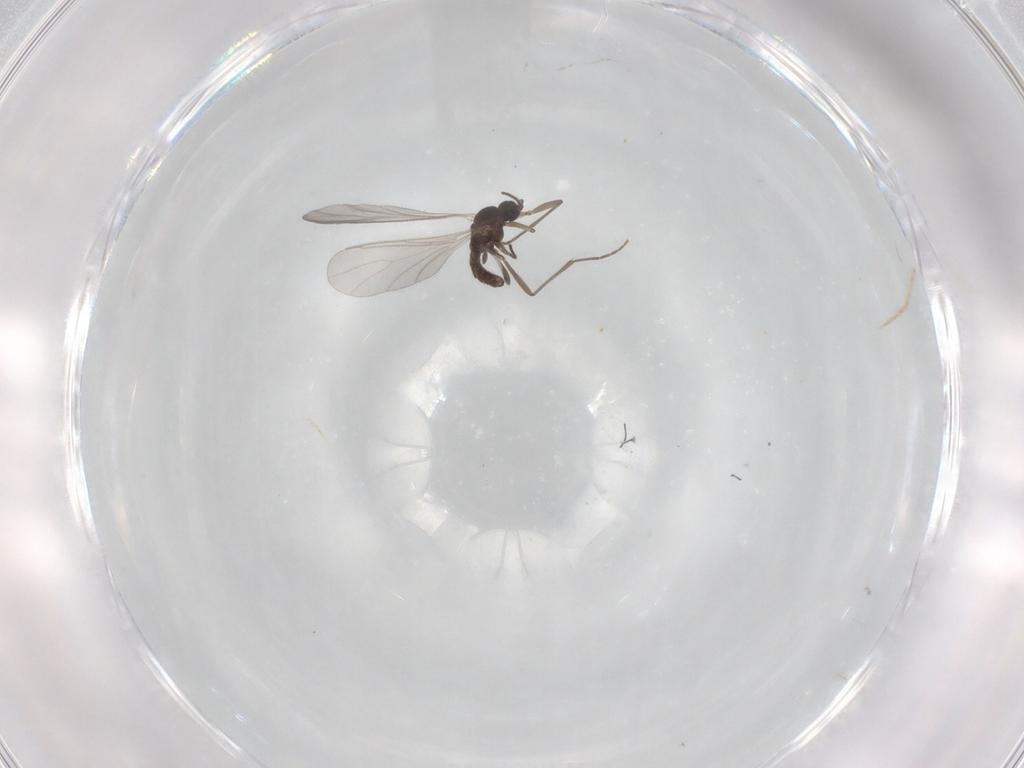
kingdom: Animalia
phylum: Arthropoda
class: Insecta
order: Diptera
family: Sciaridae
